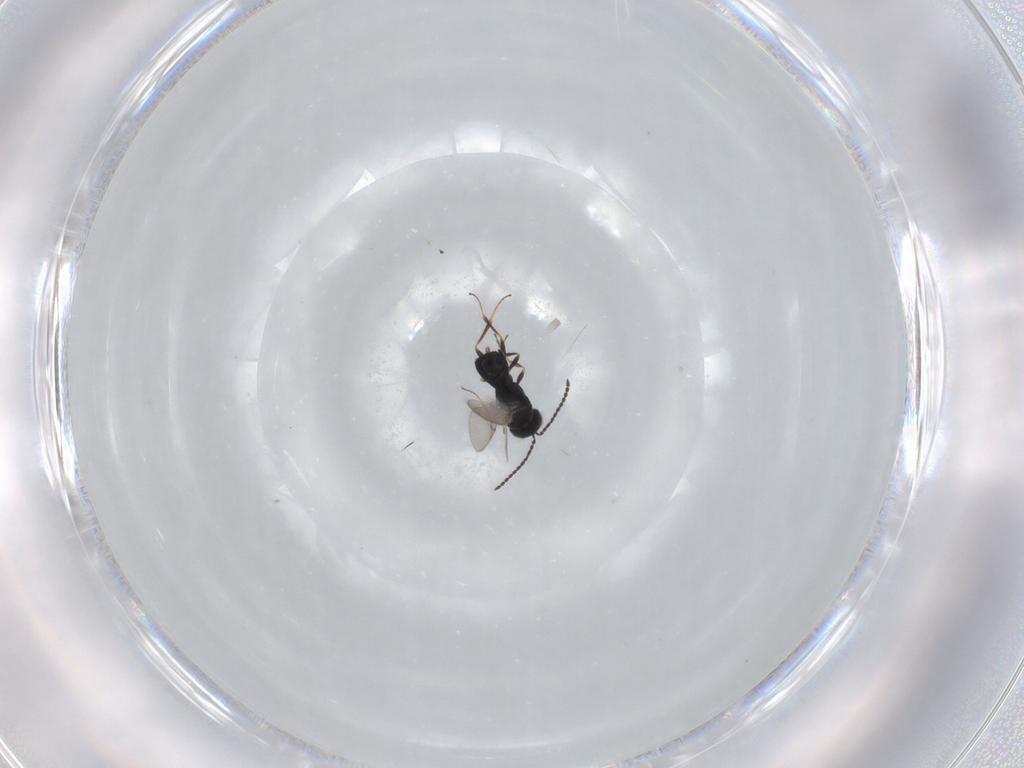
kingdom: Animalia
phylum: Arthropoda
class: Insecta
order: Hymenoptera
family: Scelionidae
